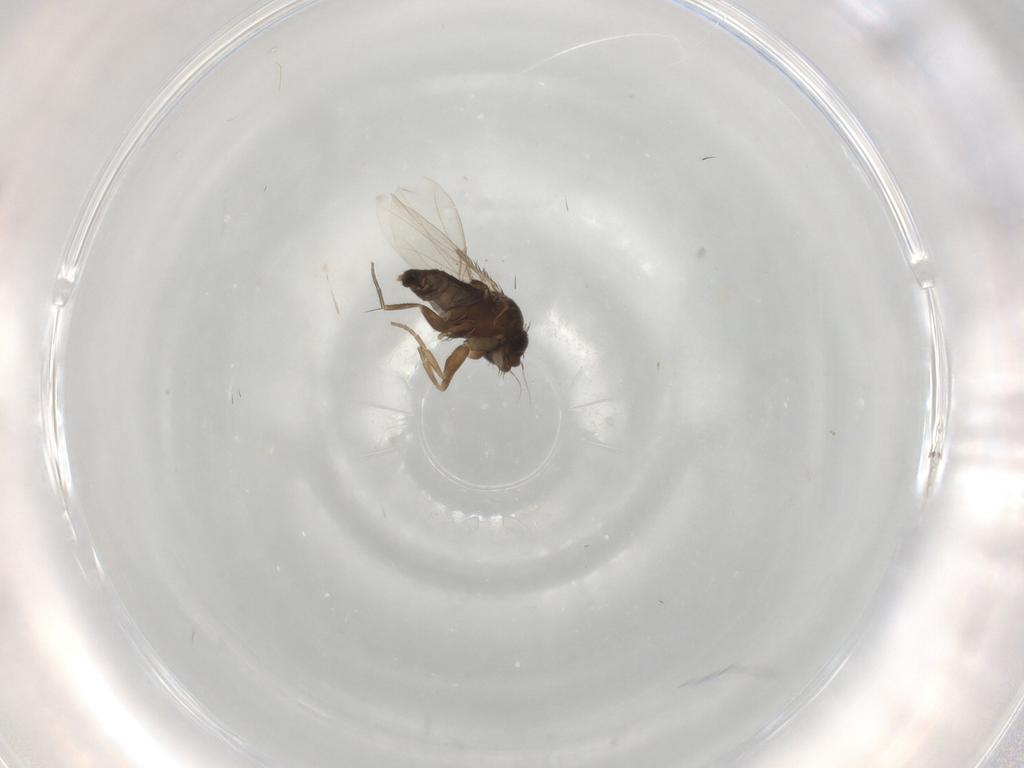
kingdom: Animalia
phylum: Arthropoda
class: Insecta
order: Diptera
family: Phoridae
